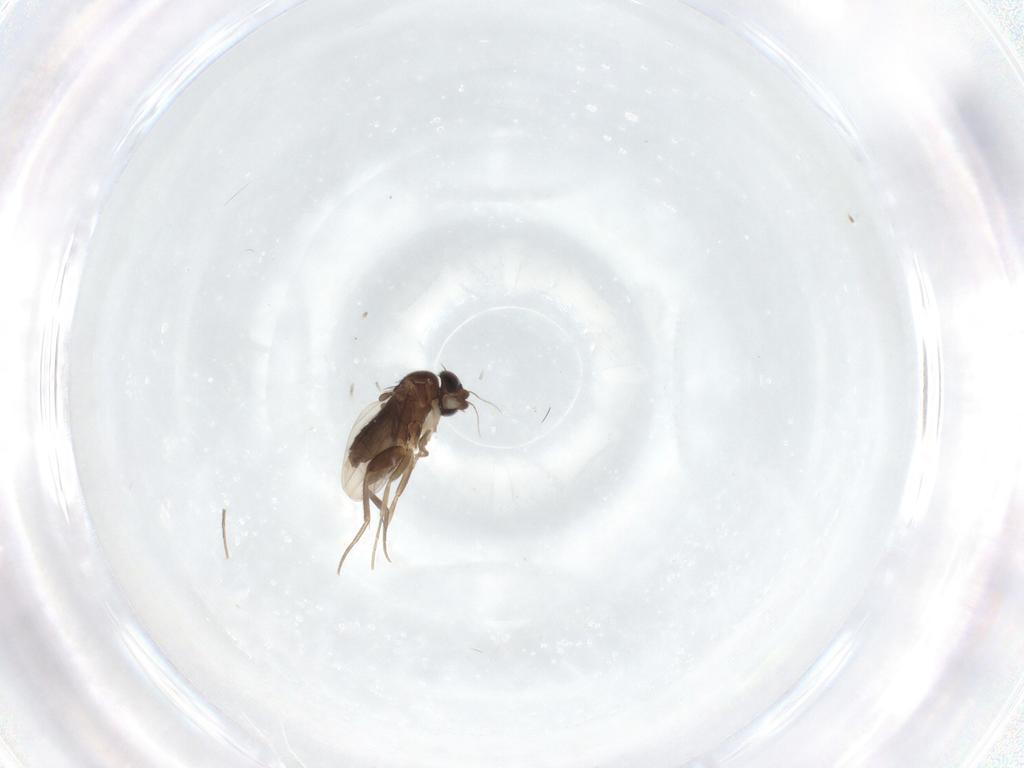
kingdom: Animalia
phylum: Arthropoda
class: Insecta
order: Diptera
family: Phoridae
